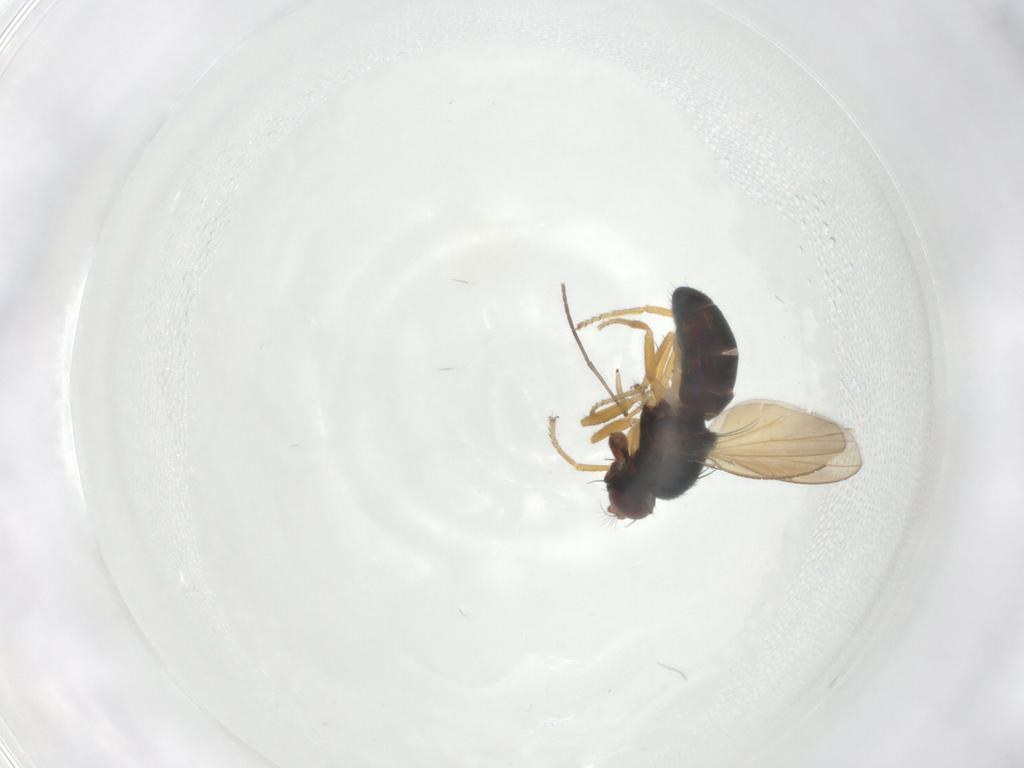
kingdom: Animalia
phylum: Arthropoda
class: Insecta
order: Diptera
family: Ephydridae
